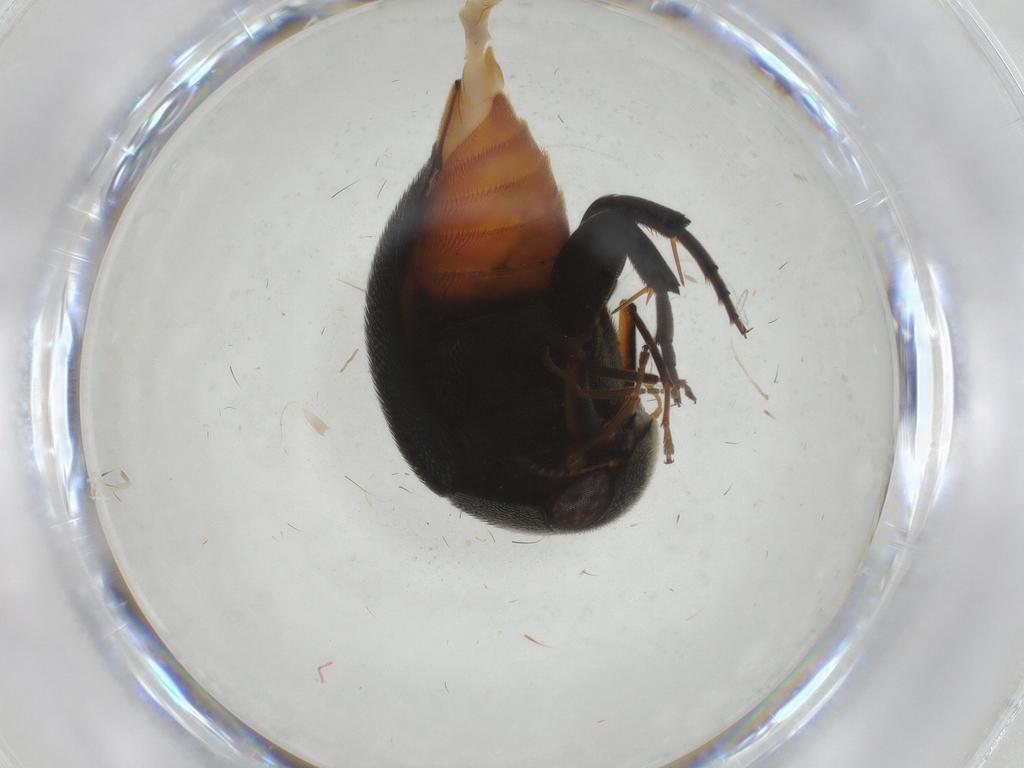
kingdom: Animalia
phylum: Arthropoda
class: Insecta
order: Coleoptera
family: Mordellidae
